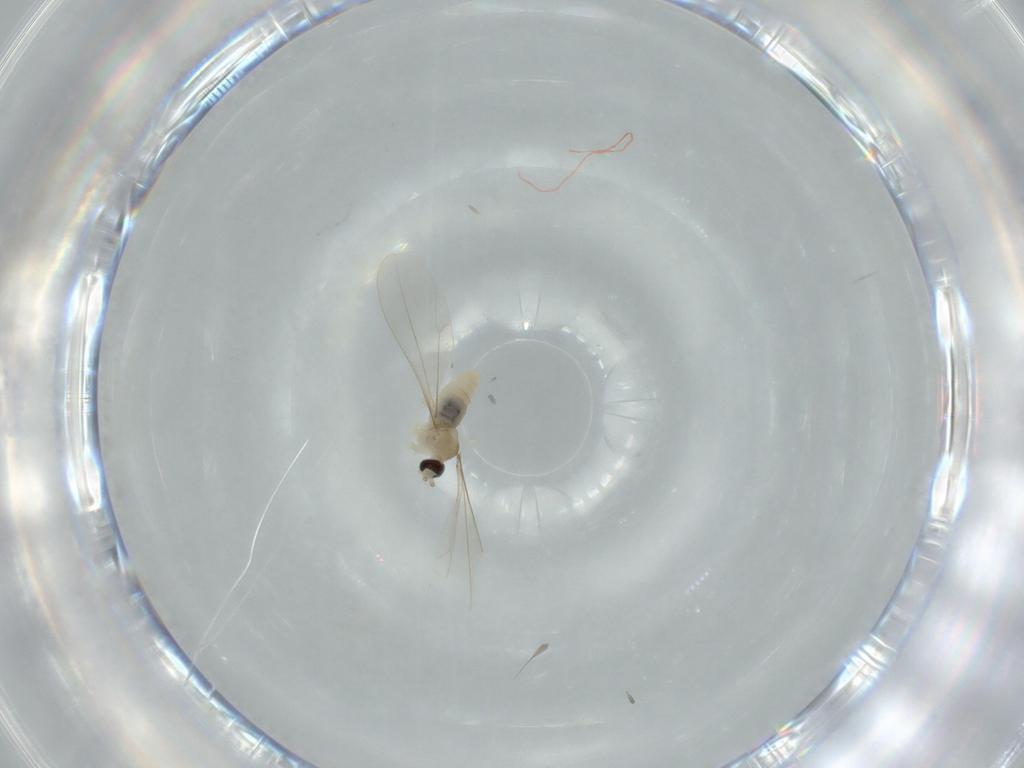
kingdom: Animalia
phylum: Arthropoda
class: Insecta
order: Diptera
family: Cecidomyiidae
